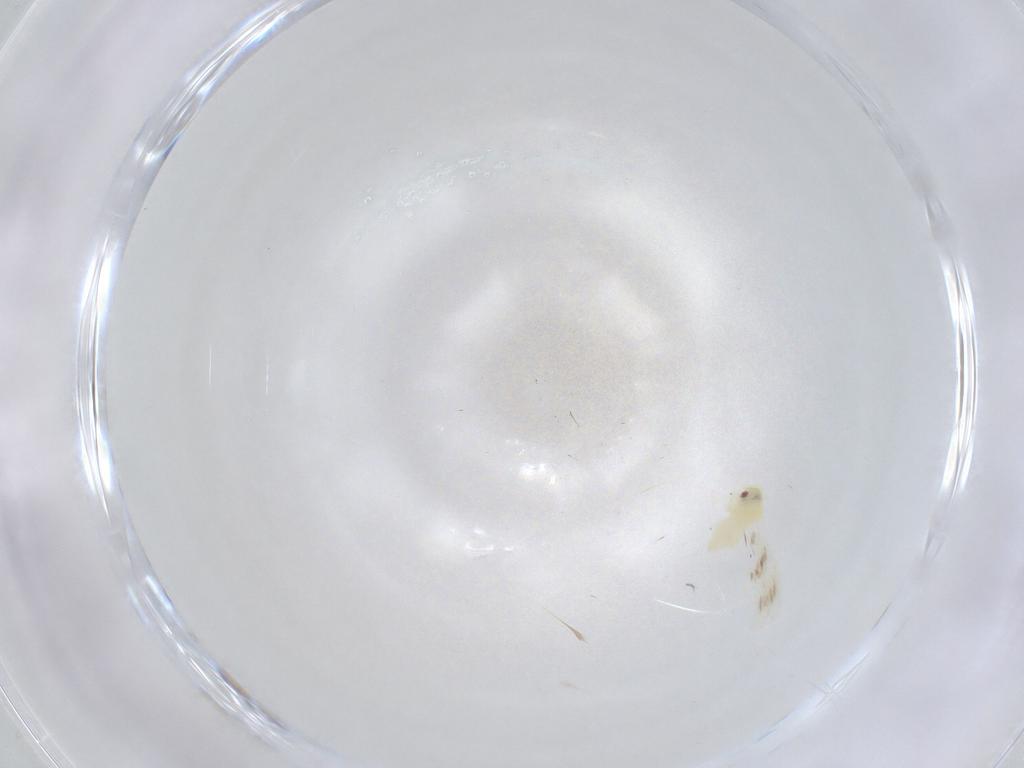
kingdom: Animalia
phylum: Arthropoda
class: Insecta
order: Hemiptera
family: Aleyrodidae
